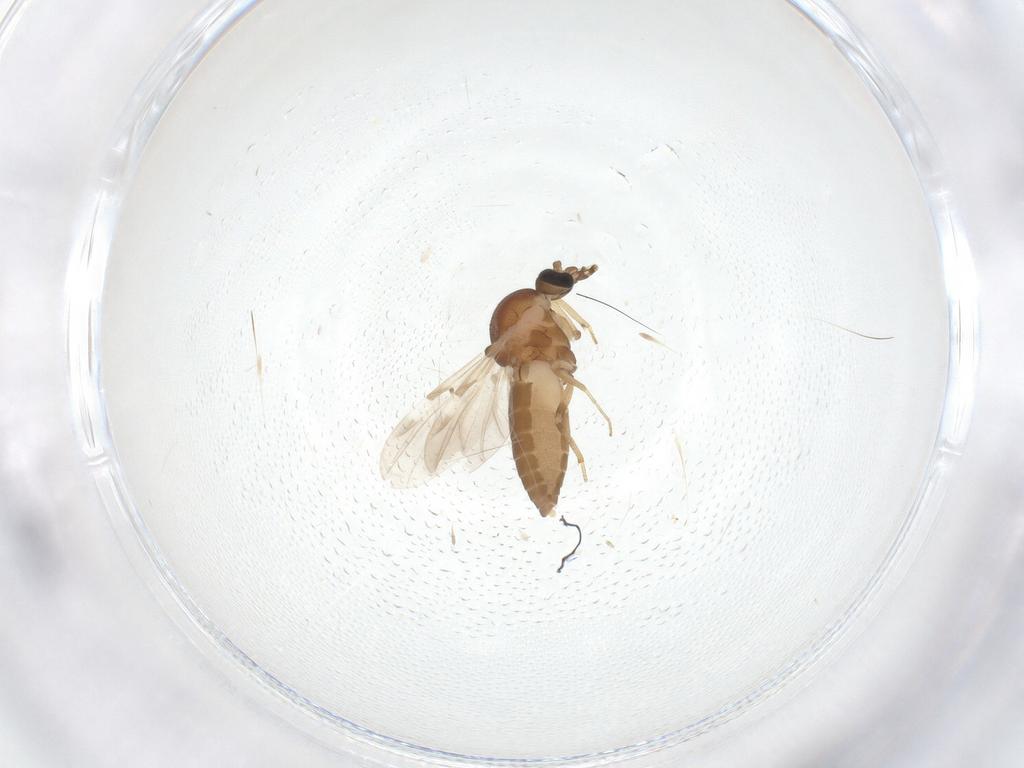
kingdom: Animalia
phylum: Arthropoda
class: Insecta
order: Diptera
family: Ceratopogonidae
